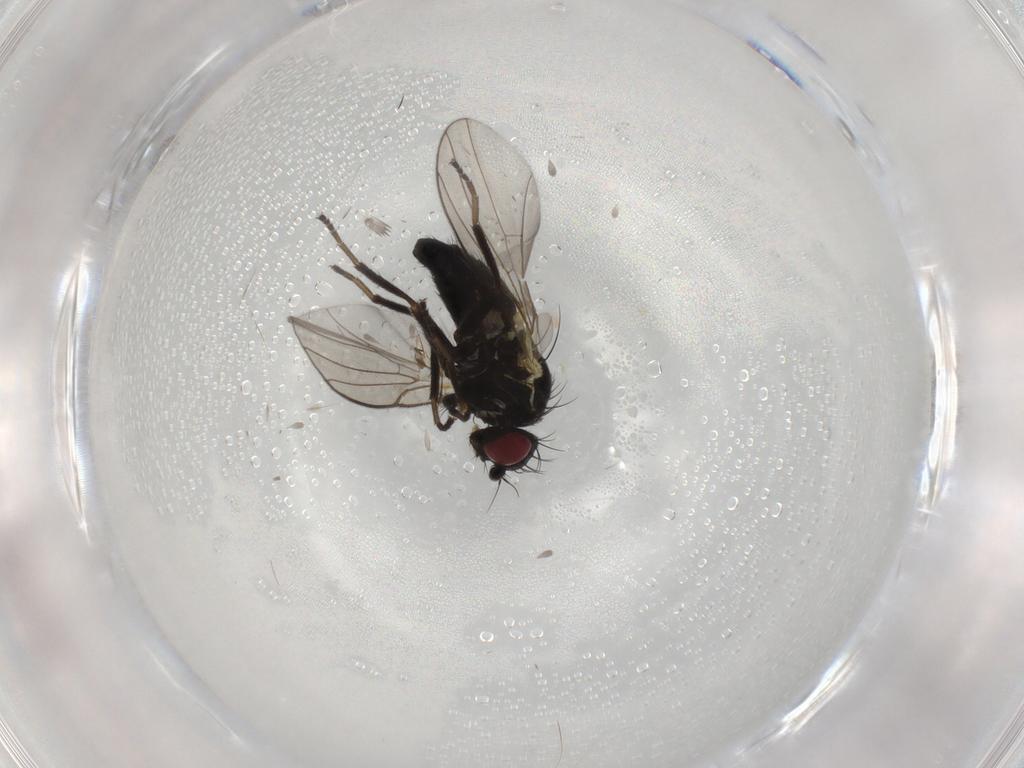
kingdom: Animalia
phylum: Arthropoda
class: Insecta
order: Diptera
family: Agromyzidae
